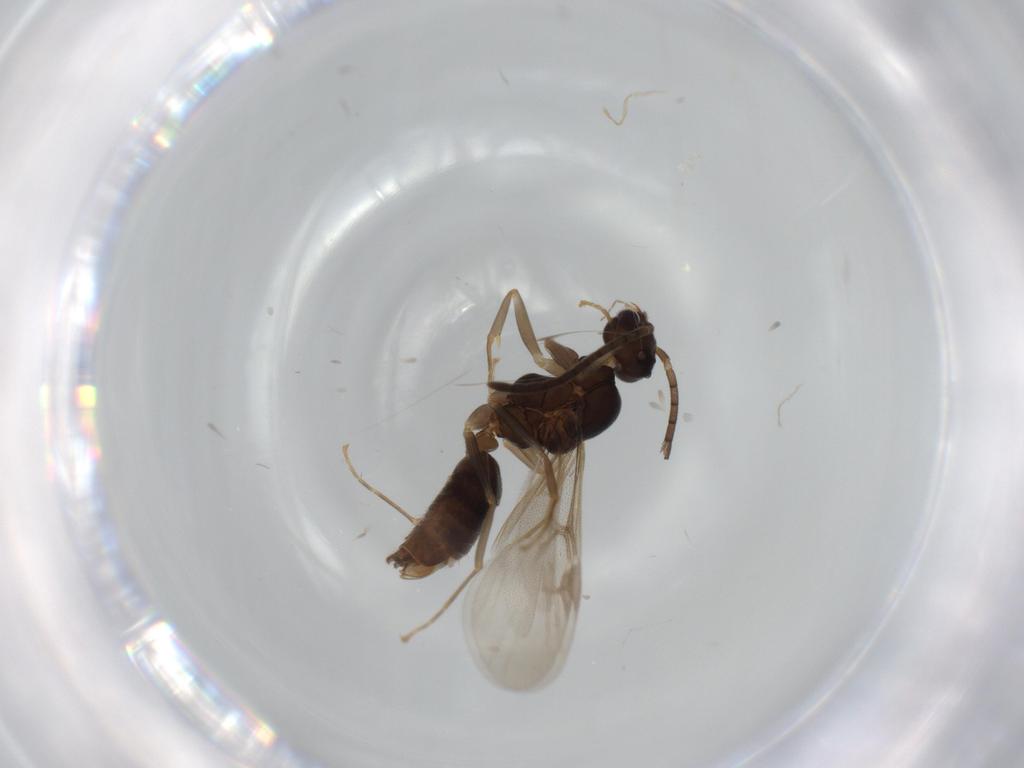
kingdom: Animalia
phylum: Arthropoda
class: Insecta
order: Hymenoptera
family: Formicidae
